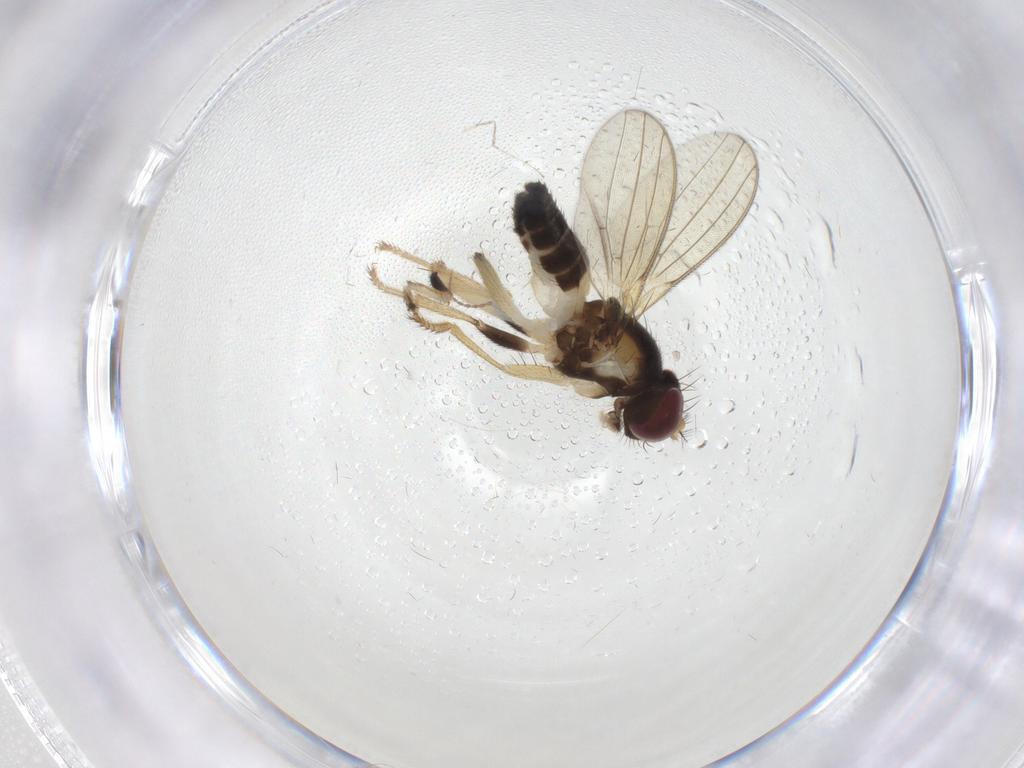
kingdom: Animalia
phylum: Arthropoda
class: Insecta
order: Diptera
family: Periscelididae
